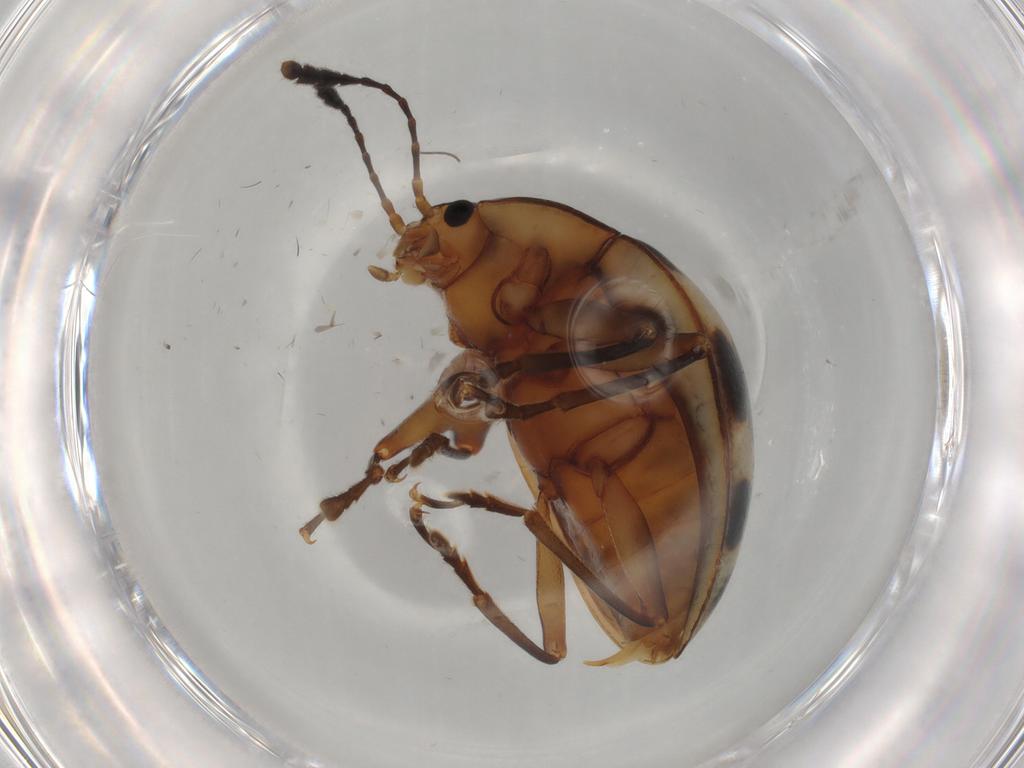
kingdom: Animalia
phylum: Arthropoda
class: Insecta
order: Coleoptera
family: Erotylidae
